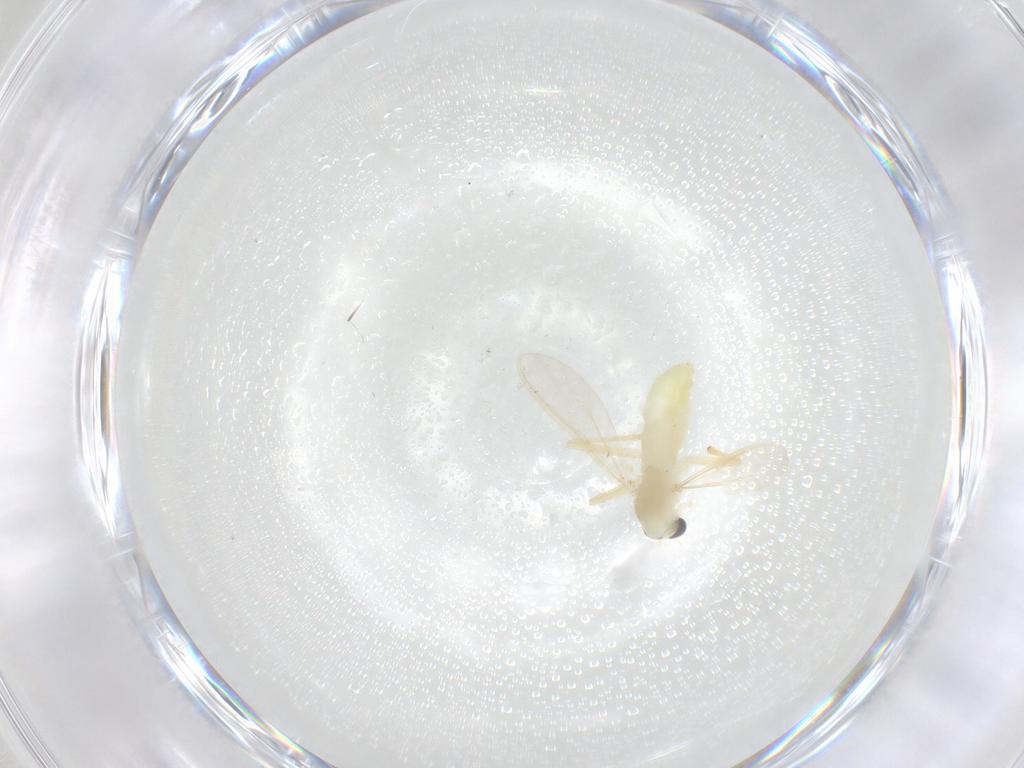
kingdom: Animalia
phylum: Arthropoda
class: Insecta
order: Diptera
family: Chironomidae
